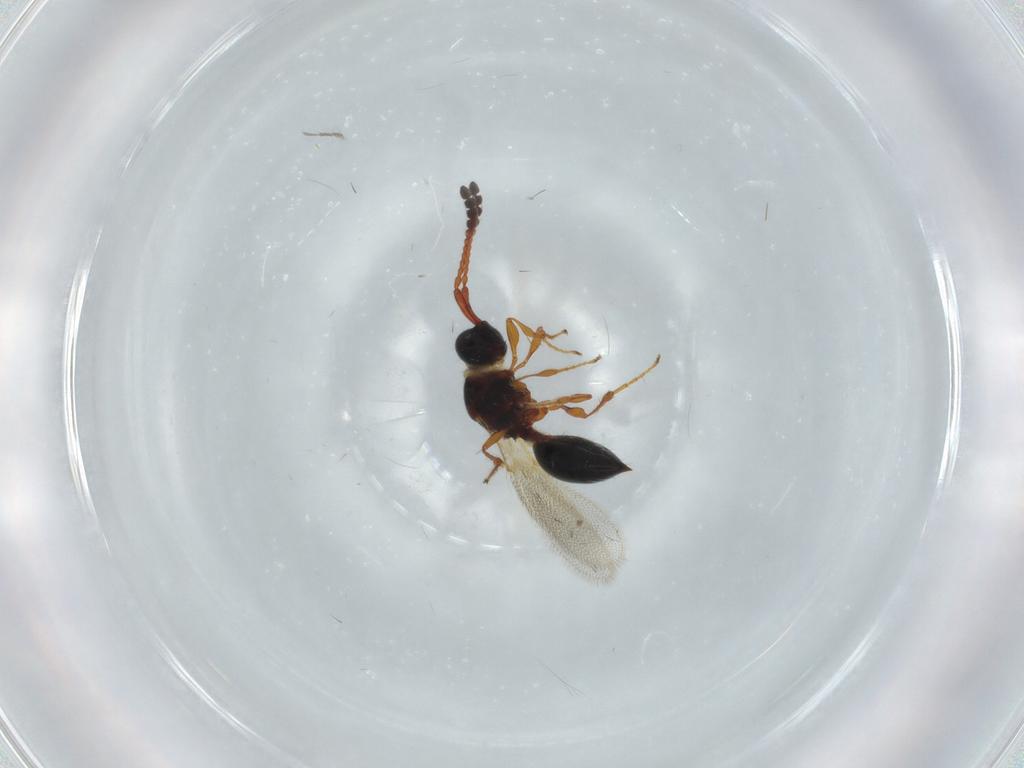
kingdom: Animalia
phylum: Arthropoda
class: Insecta
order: Hymenoptera
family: Diapriidae
